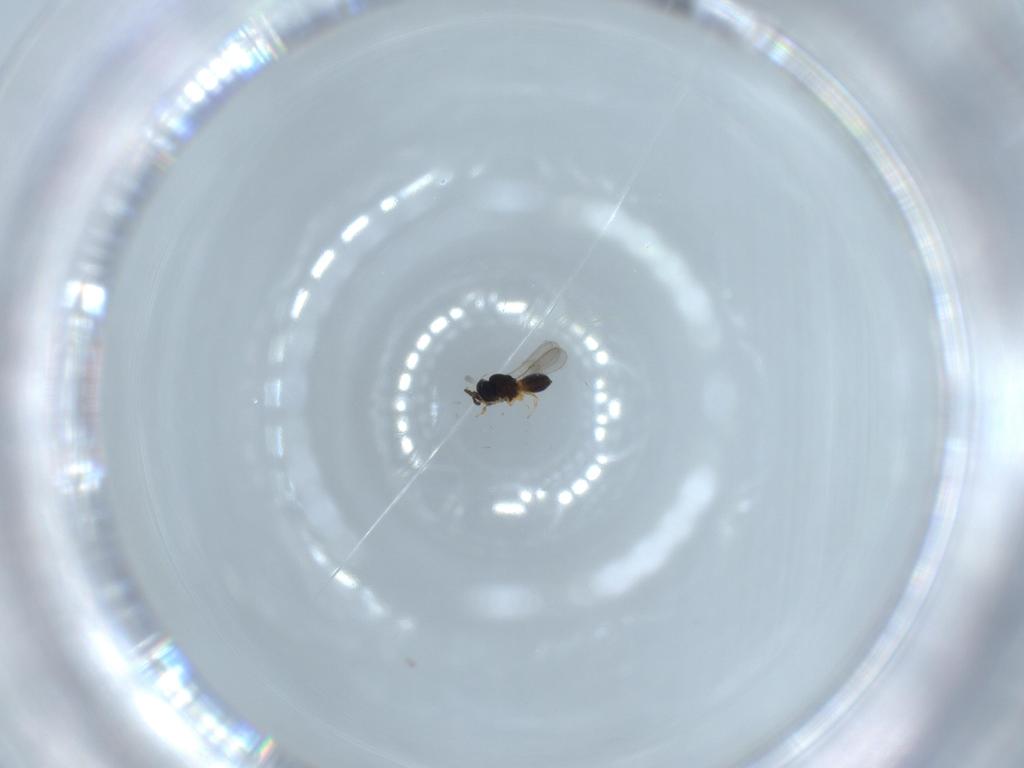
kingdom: Animalia
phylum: Arthropoda
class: Insecta
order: Hymenoptera
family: Scelionidae
